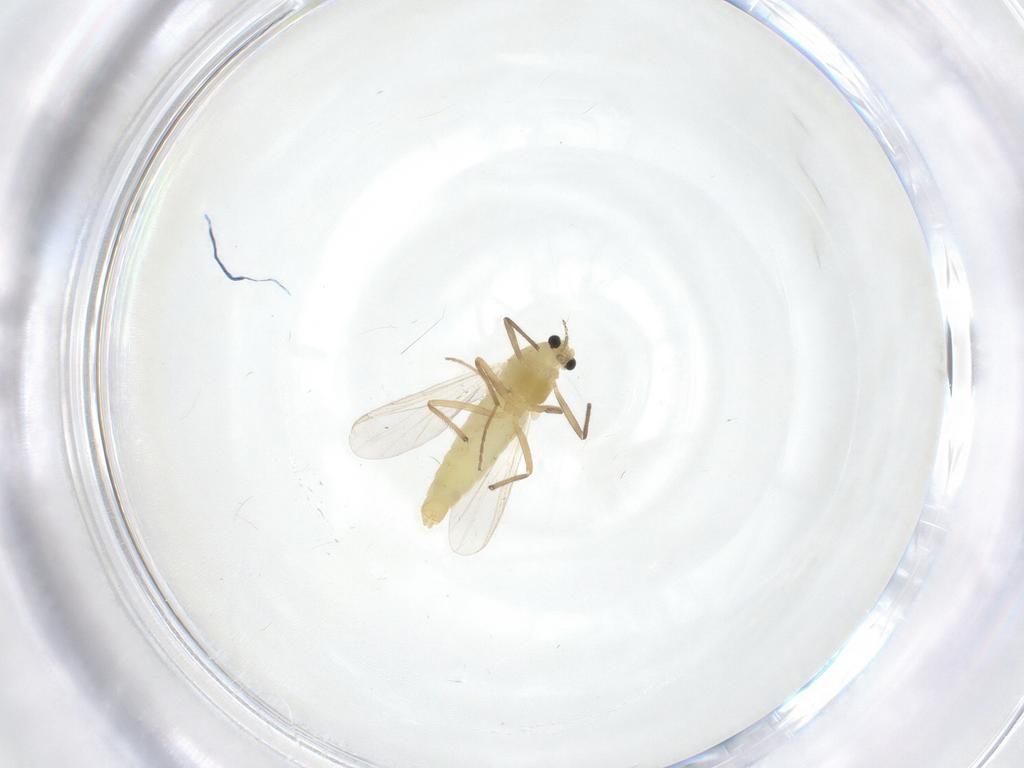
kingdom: Animalia
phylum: Arthropoda
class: Insecta
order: Diptera
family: Chironomidae
